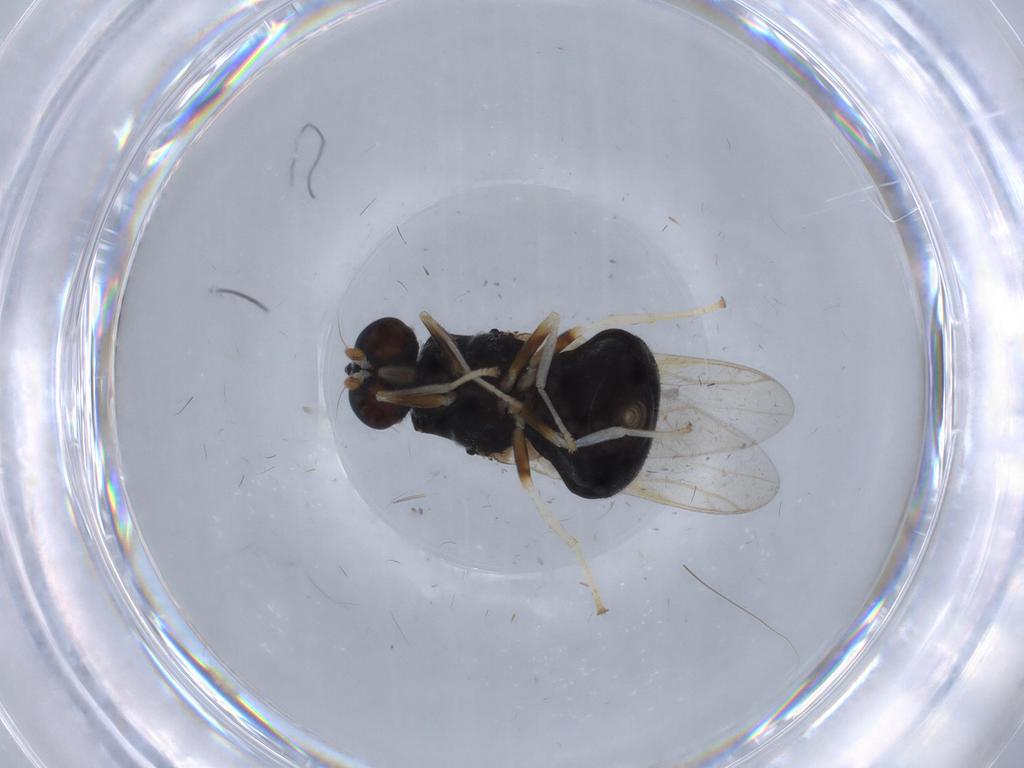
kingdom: Animalia
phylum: Arthropoda
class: Insecta
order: Diptera
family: Stratiomyidae
